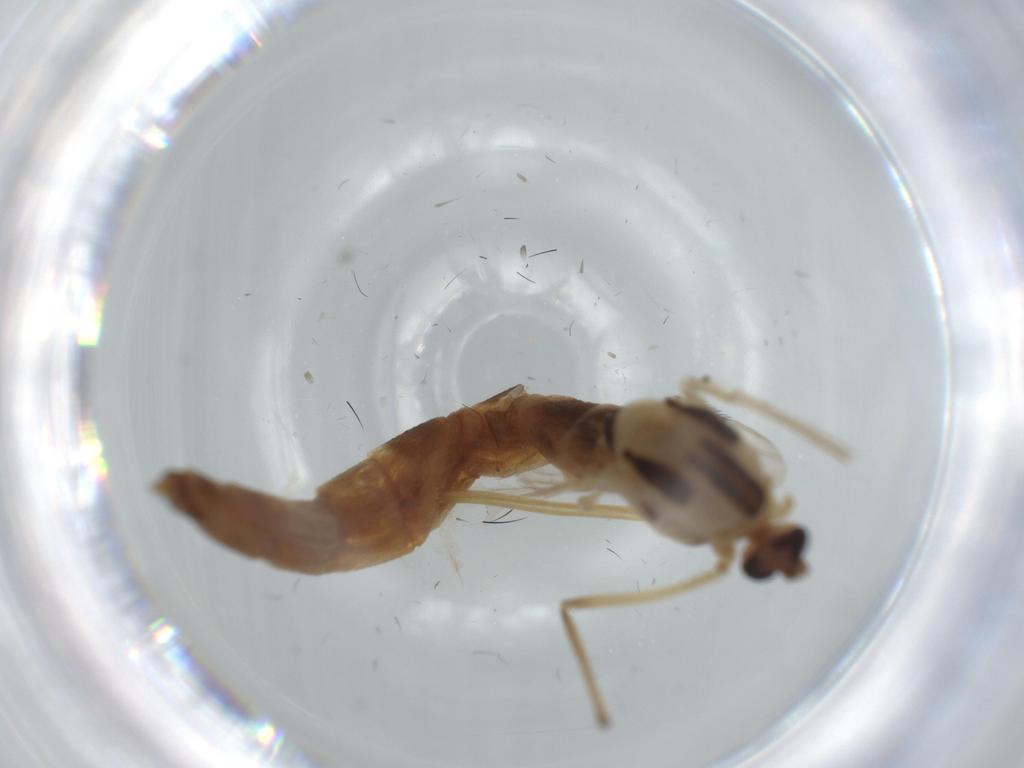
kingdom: Animalia
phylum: Arthropoda
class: Insecta
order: Diptera
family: Chironomidae
